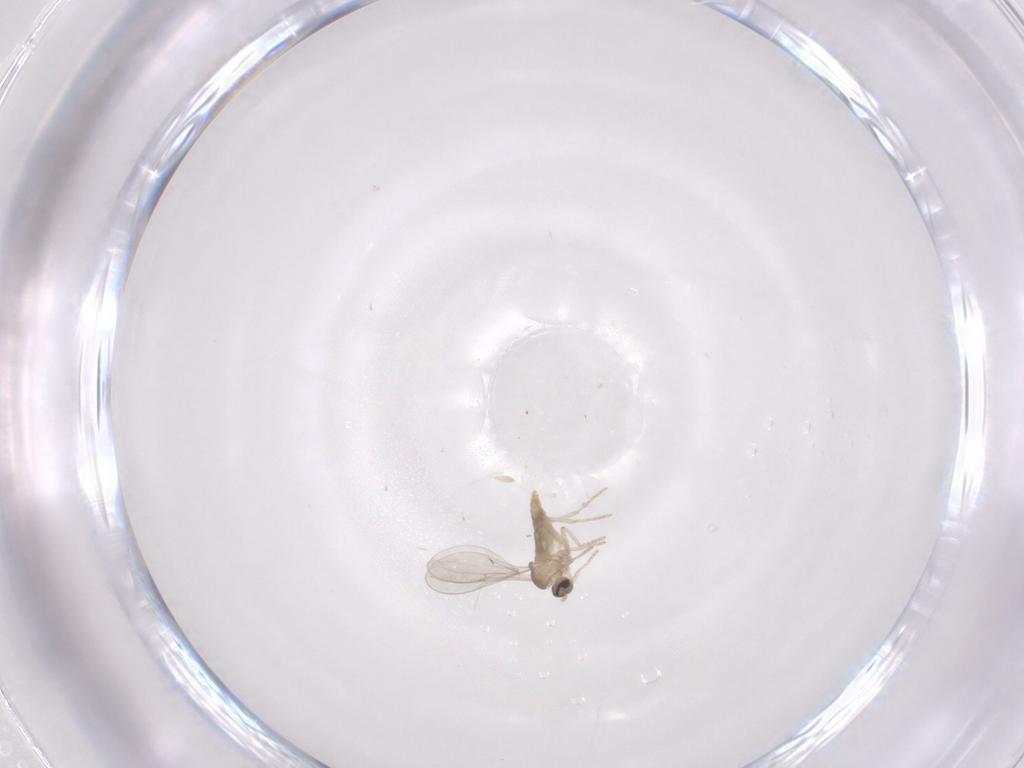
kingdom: Animalia
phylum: Arthropoda
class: Insecta
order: Diptera
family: Cecidomyiidae
